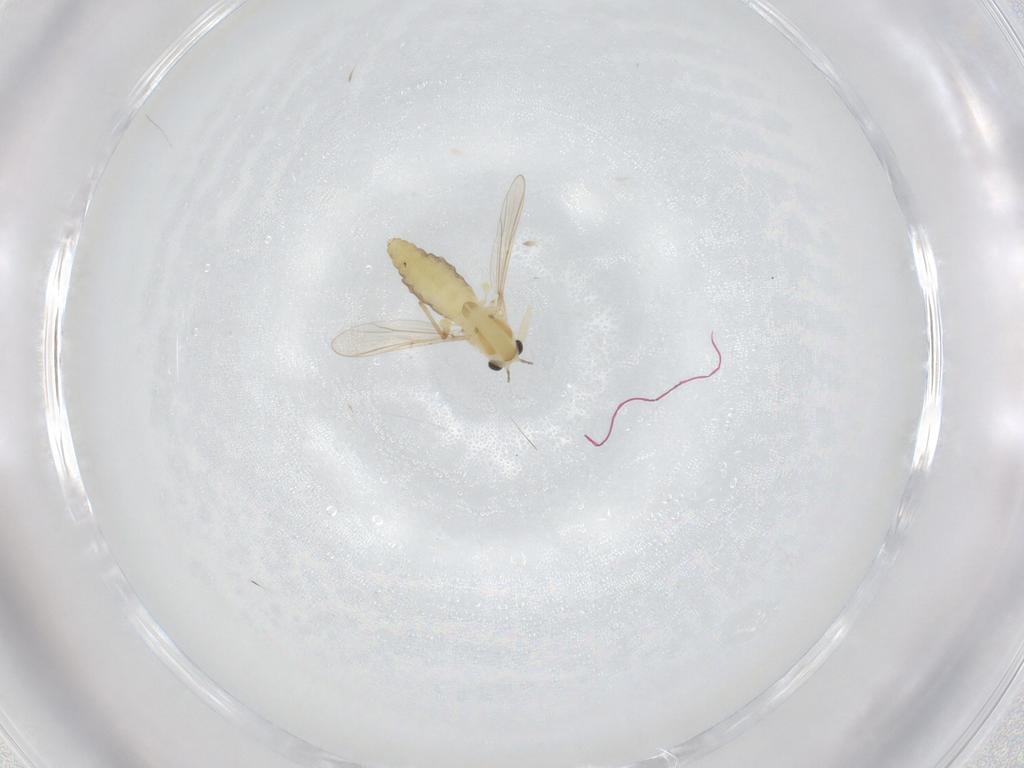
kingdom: Animalia
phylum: Arthropoda
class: Insecta
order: Diptera
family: Chironomidae
